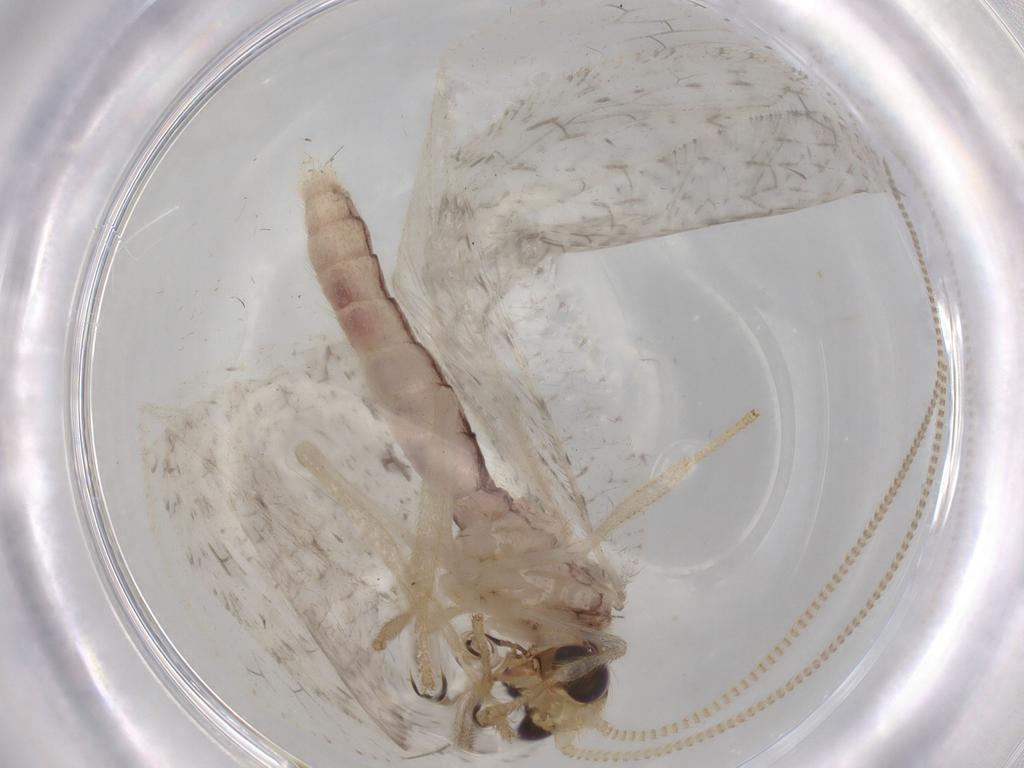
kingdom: Animalia
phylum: Arthropoda
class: Insecta
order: Neuroptera
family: Hemerobiidae
